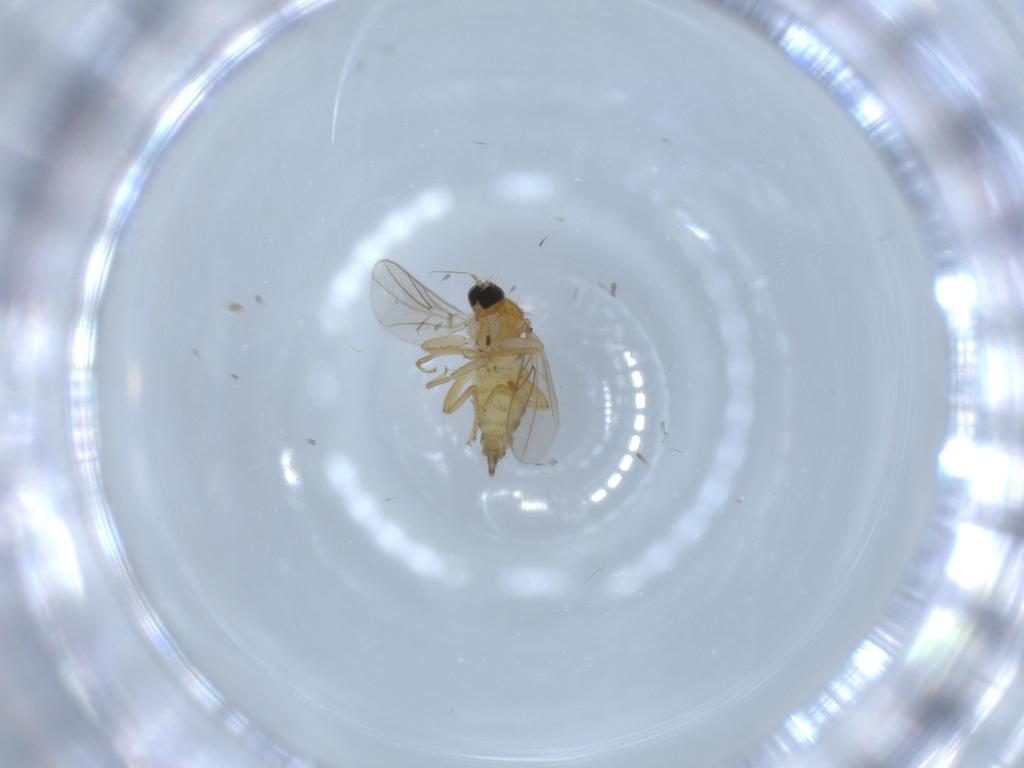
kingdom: Animalia
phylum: Arthropoda
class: Insecta
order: Diptera
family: Hybotidae
